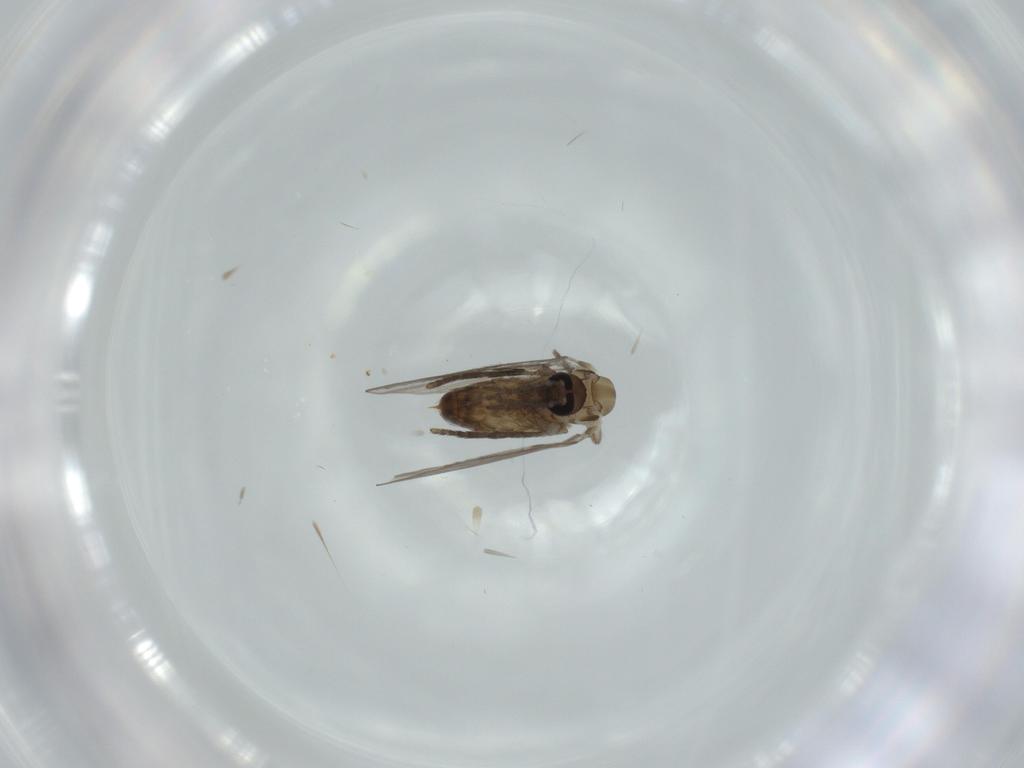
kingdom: Animalia
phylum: Arthropoda
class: Insecta
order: Diptera
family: Psychodidae
